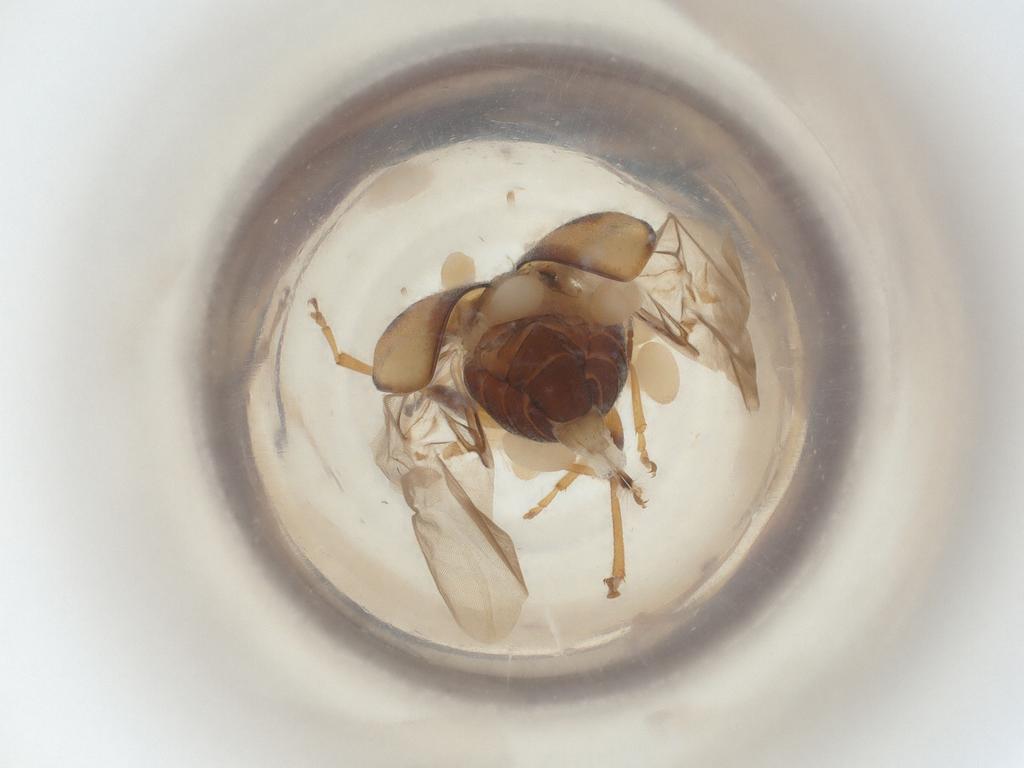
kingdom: Animalia
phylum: Arthropoda
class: Insecta
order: Coleoptera
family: Chrysomelidae
